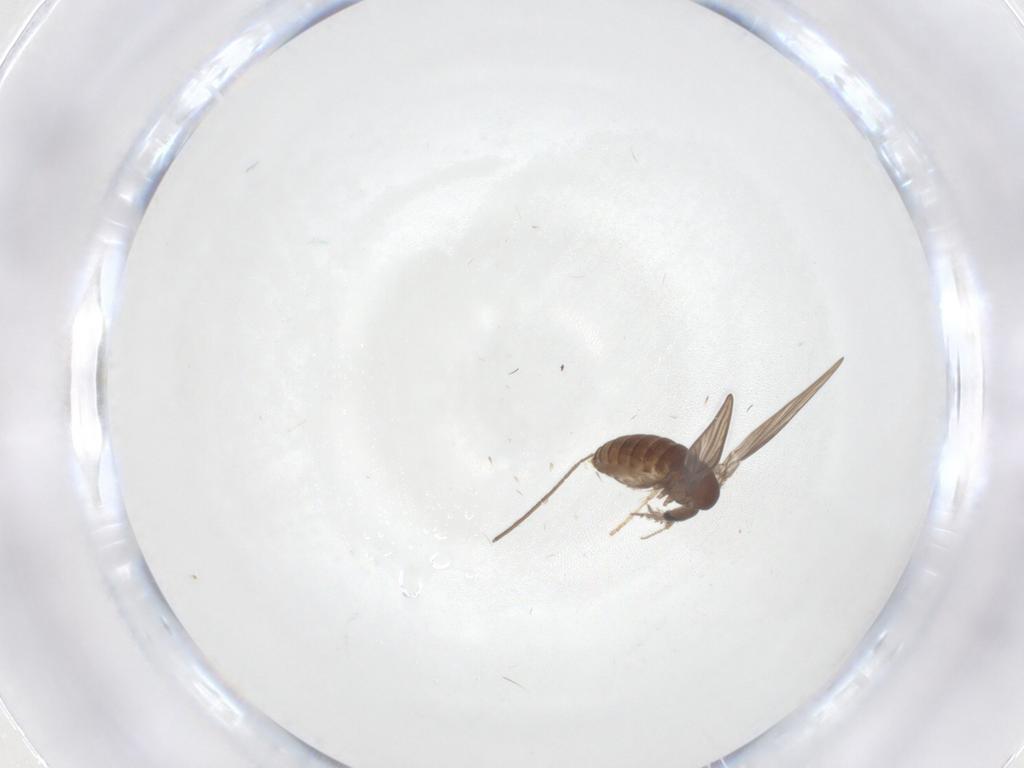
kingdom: Animalia
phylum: Arthropoda
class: Insecta
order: Diptera
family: Psychodidae
